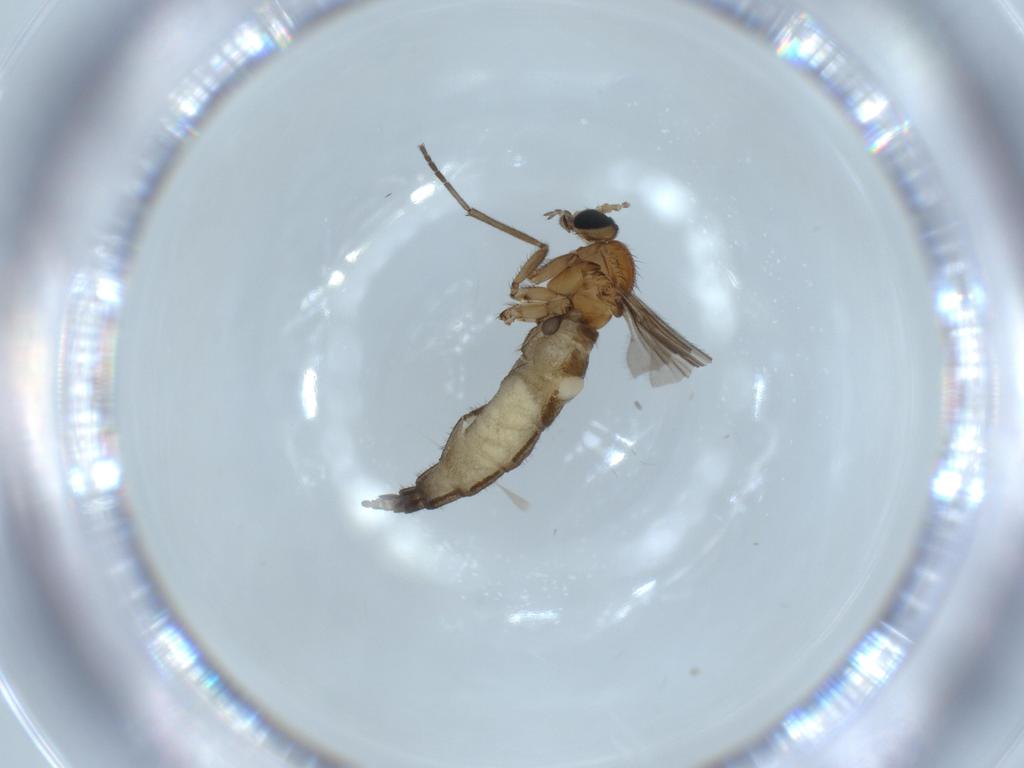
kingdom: Animalia
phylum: Arthropoda
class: Insecta
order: Diptera
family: Sciaridae
